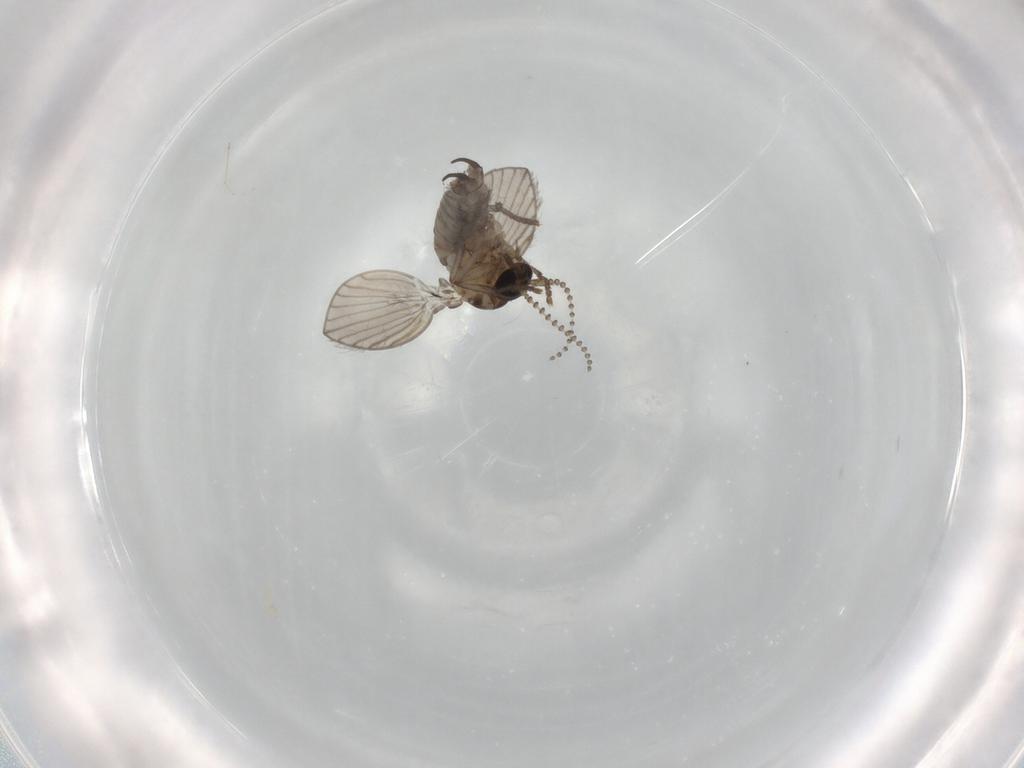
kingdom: Animalia
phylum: Arthropoda
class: Insecta
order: Diptera
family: Psychodidae
